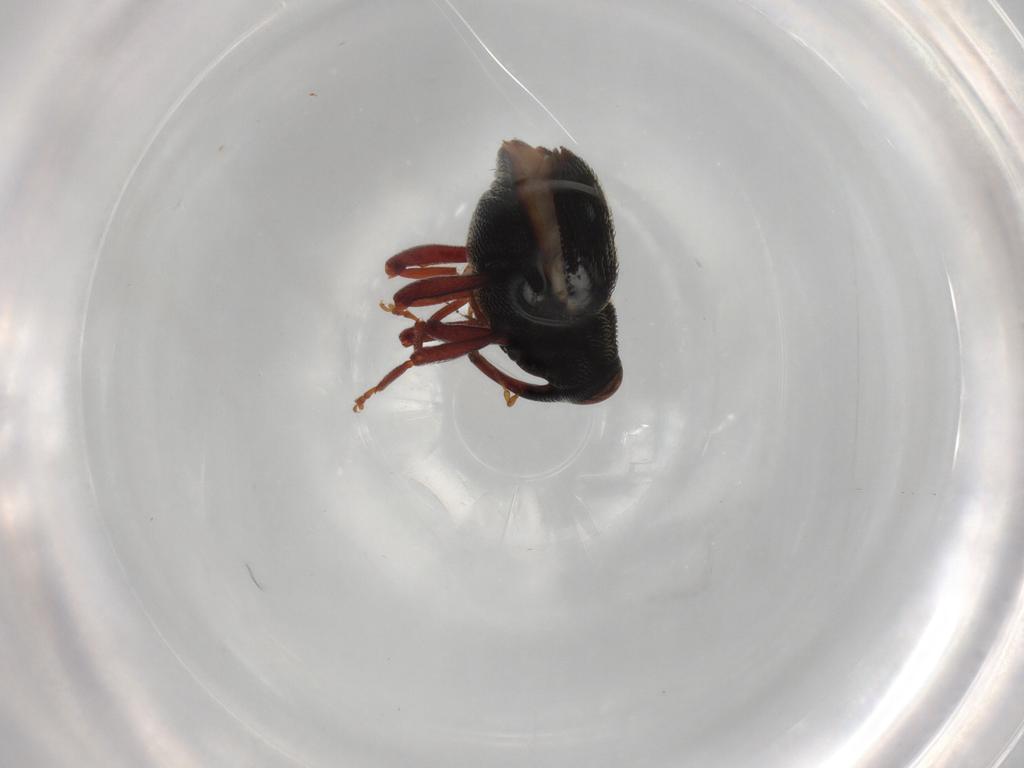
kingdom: Animalia
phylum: Arthropoda
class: Insecta
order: Coleoptera
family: Curculionidae
